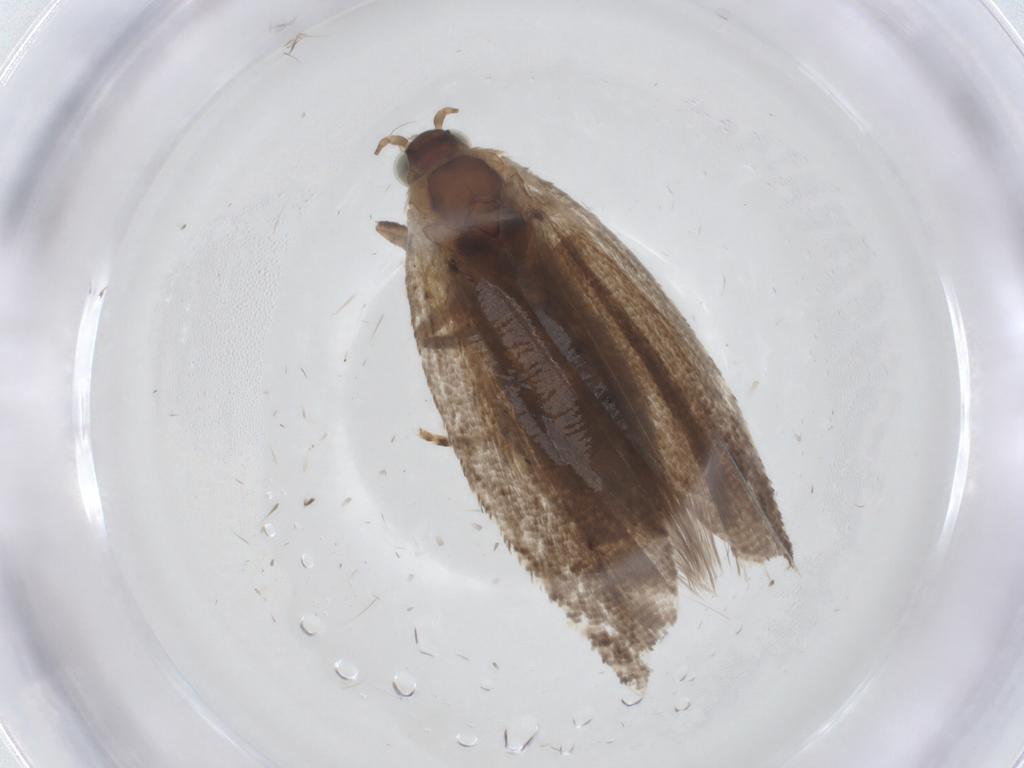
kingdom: Animalia
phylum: Arthropoda
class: Insecta
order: Lepidoptera
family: Tortricidae
